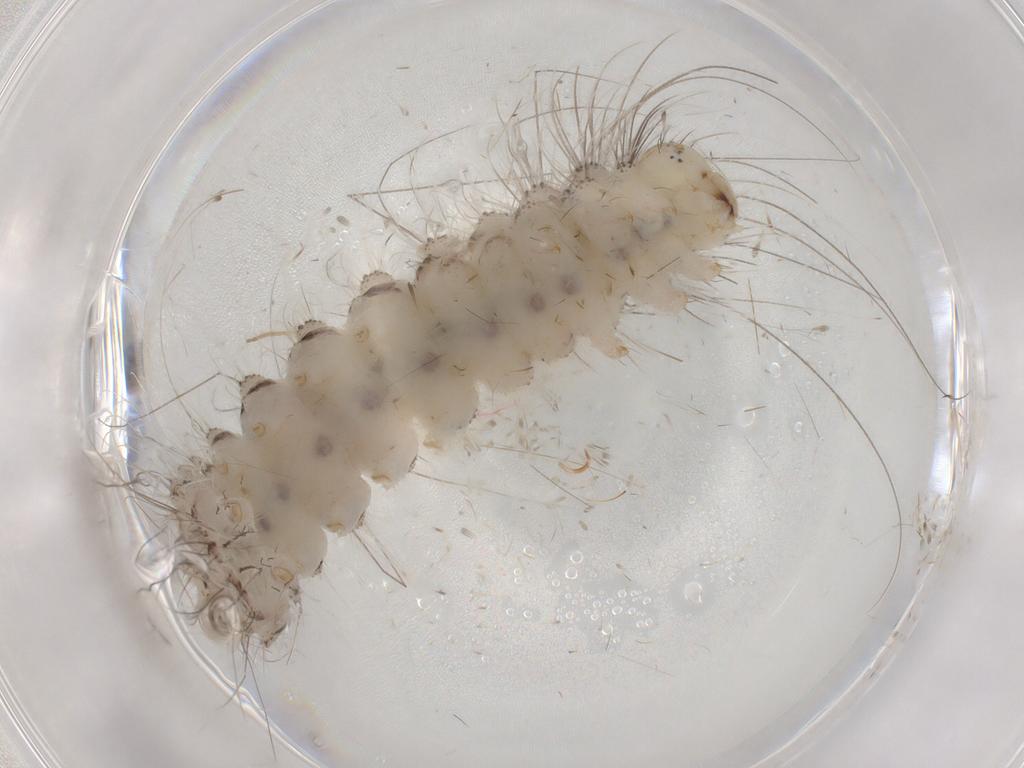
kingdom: Animalia
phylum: Arthropoda
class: Insecta
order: Lepidoptera
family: Erebidae
